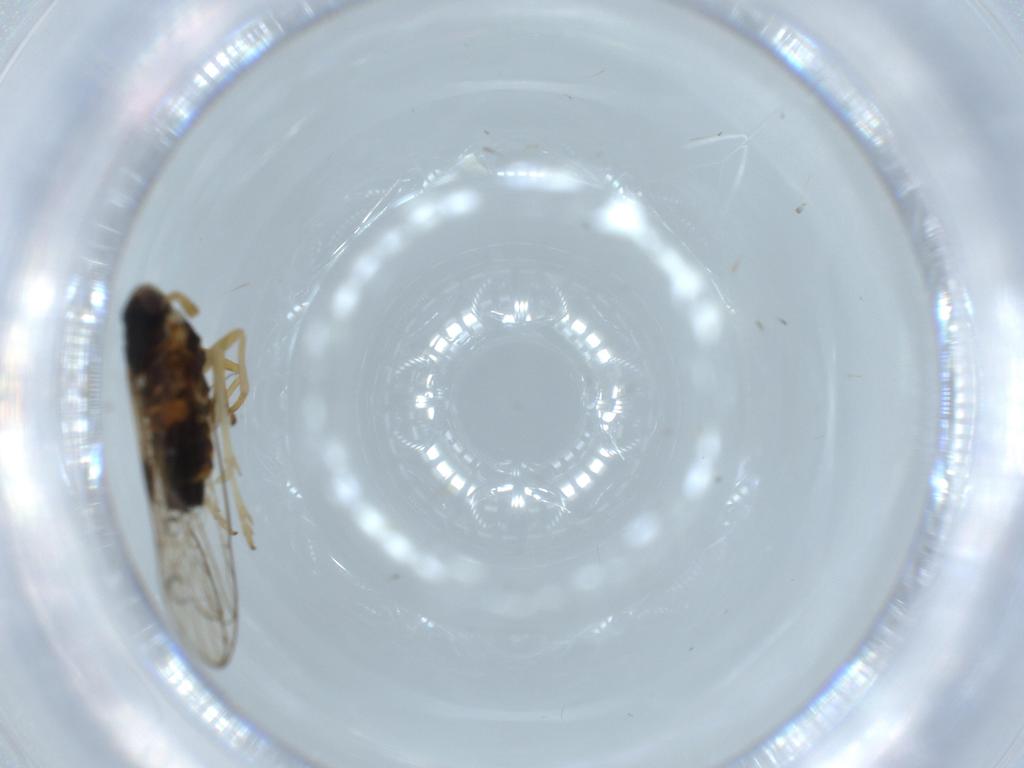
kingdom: Animalia
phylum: Arthropoda
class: Insecta
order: Diptera
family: Cecidomyiidae
